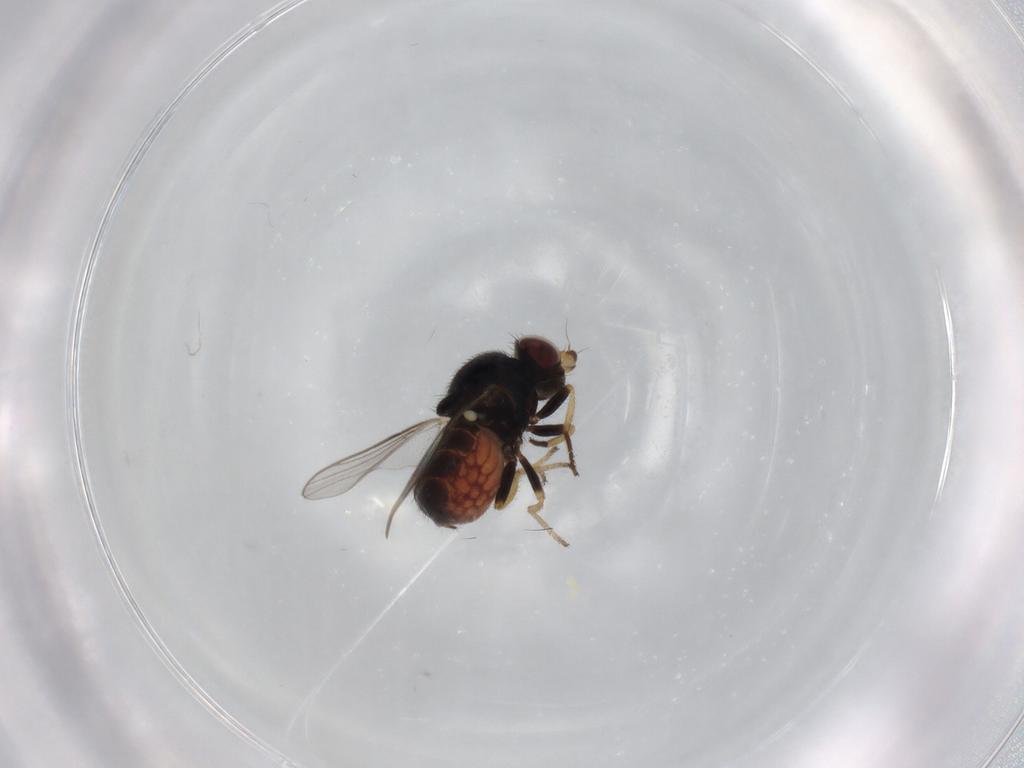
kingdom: Animalia
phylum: Arthropoda
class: Insecta
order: Diptera
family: Chloropidae
